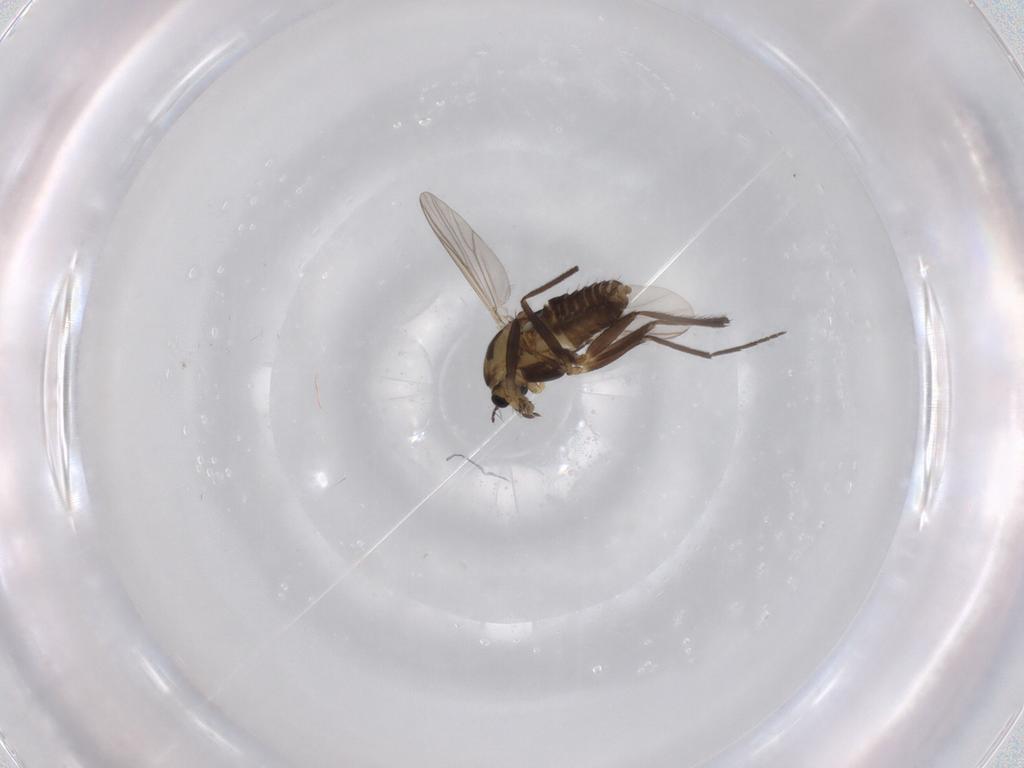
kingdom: Animalia
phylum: Arthropoda
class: Insecta
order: Diptera
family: Chironomidae
